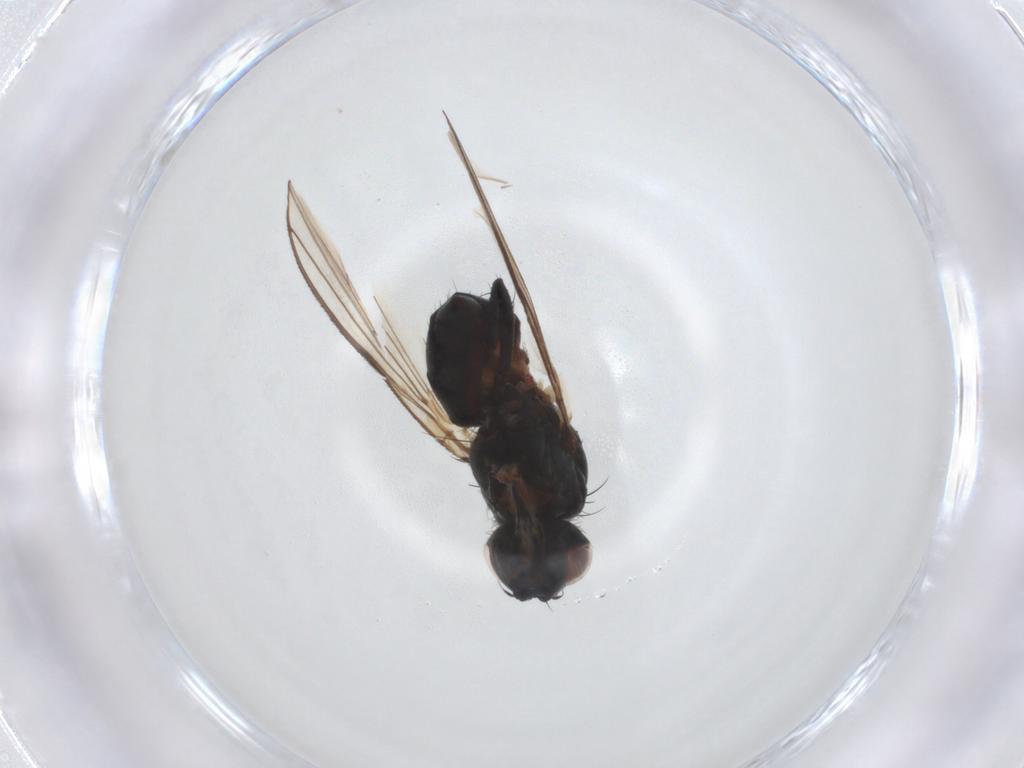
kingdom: Animalia
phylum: Arthropoda
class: Insecta
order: Diptera
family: Anthomyiidae
